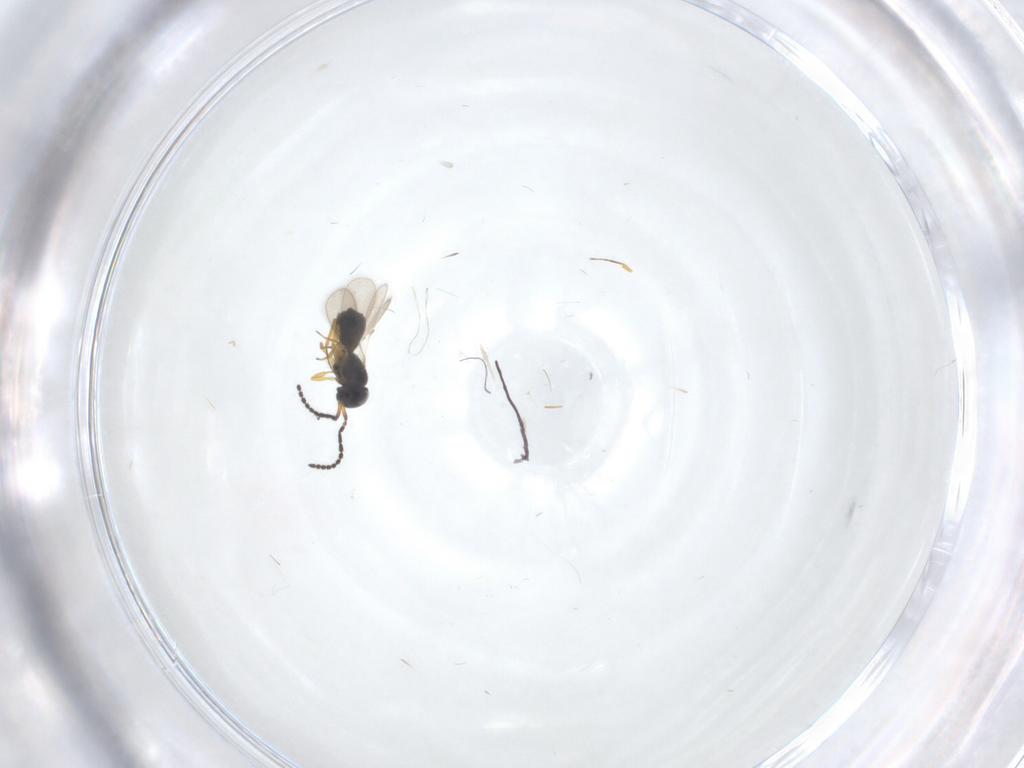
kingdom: Animalia
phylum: Arthropoda
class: Insecta
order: Hymenoptera
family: Scelionidae
